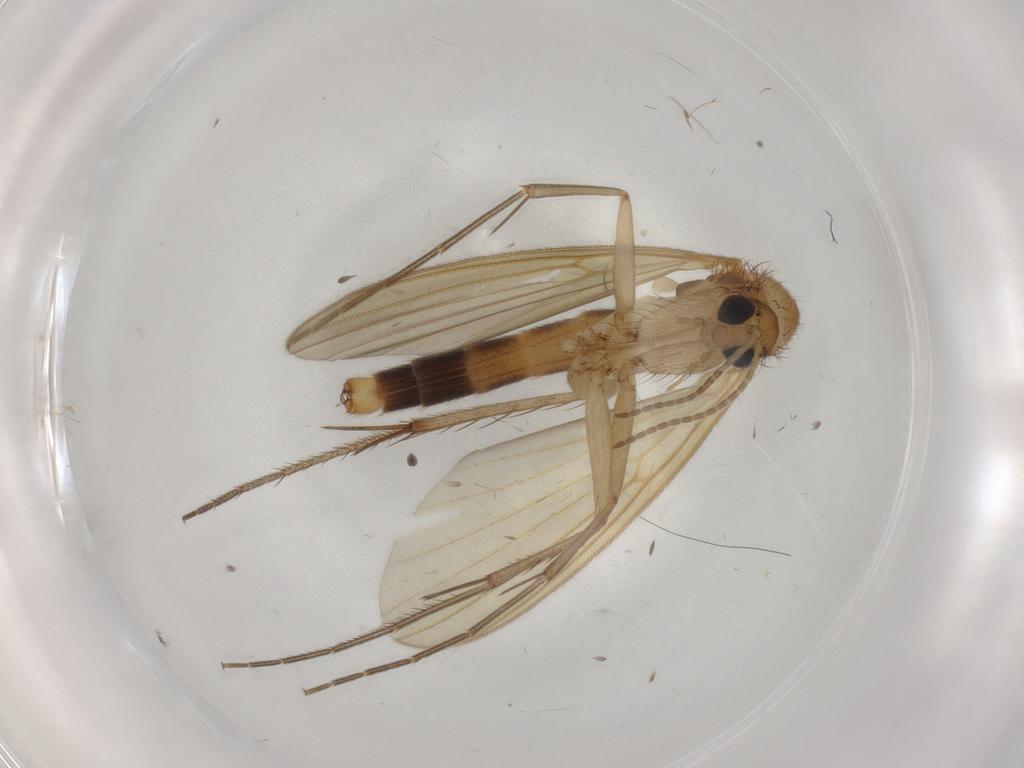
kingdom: Animalia
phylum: Arthropoda
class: Insecta
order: Diptera
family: Mycetophilidae
